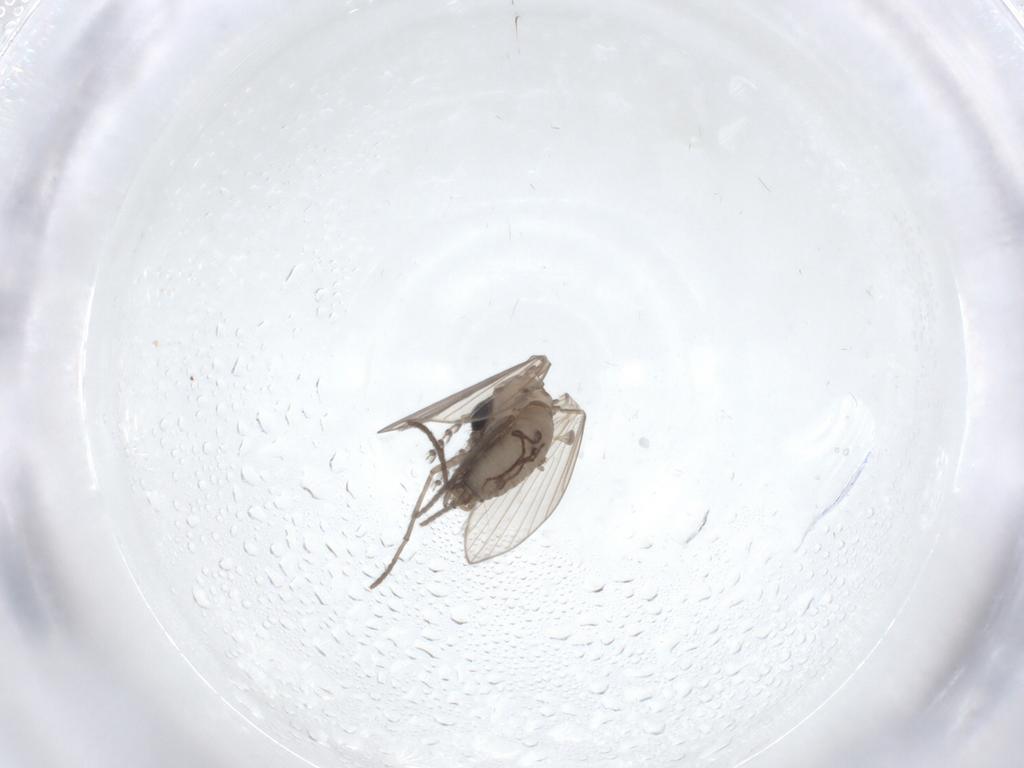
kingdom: Animalia
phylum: Arthropoda
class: Insecta
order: Diptera
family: Psychodidae
